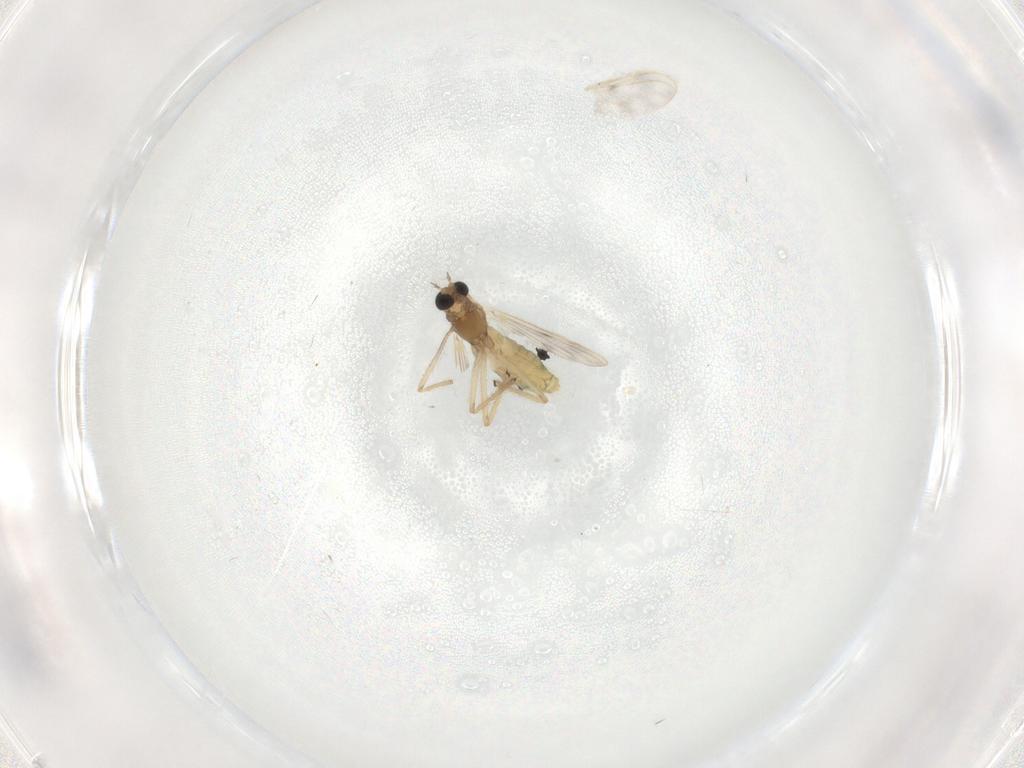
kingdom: Animalia
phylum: Arthropoda
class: Insecta
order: Diptera
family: Chironomidae
